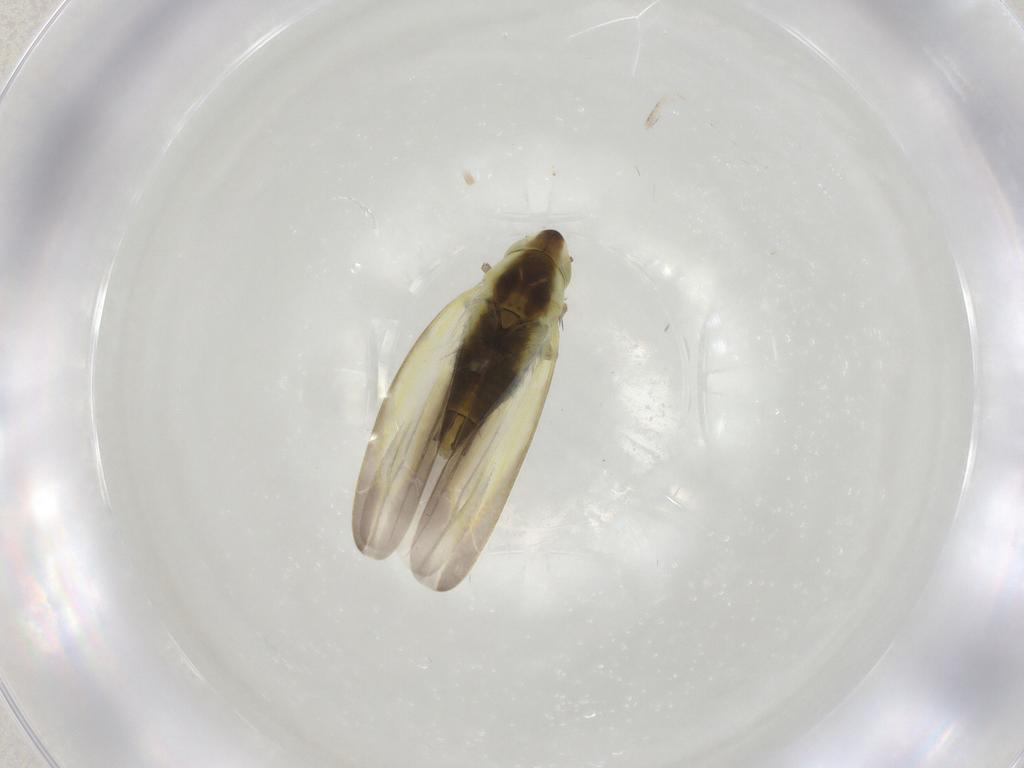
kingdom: Animalia
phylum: Arthropoda
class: Insecta
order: Hemiptera
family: Cicadellidae
